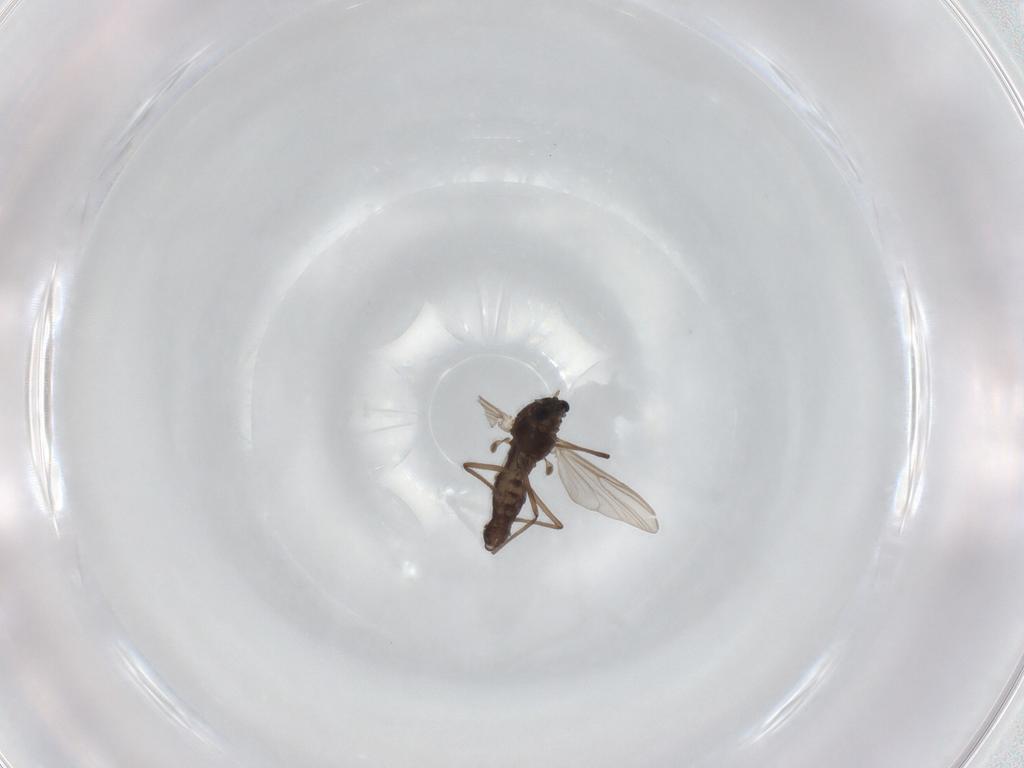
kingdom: Animalia
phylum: Arthropoda
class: Insecta
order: Diptera
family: Chironomidae
